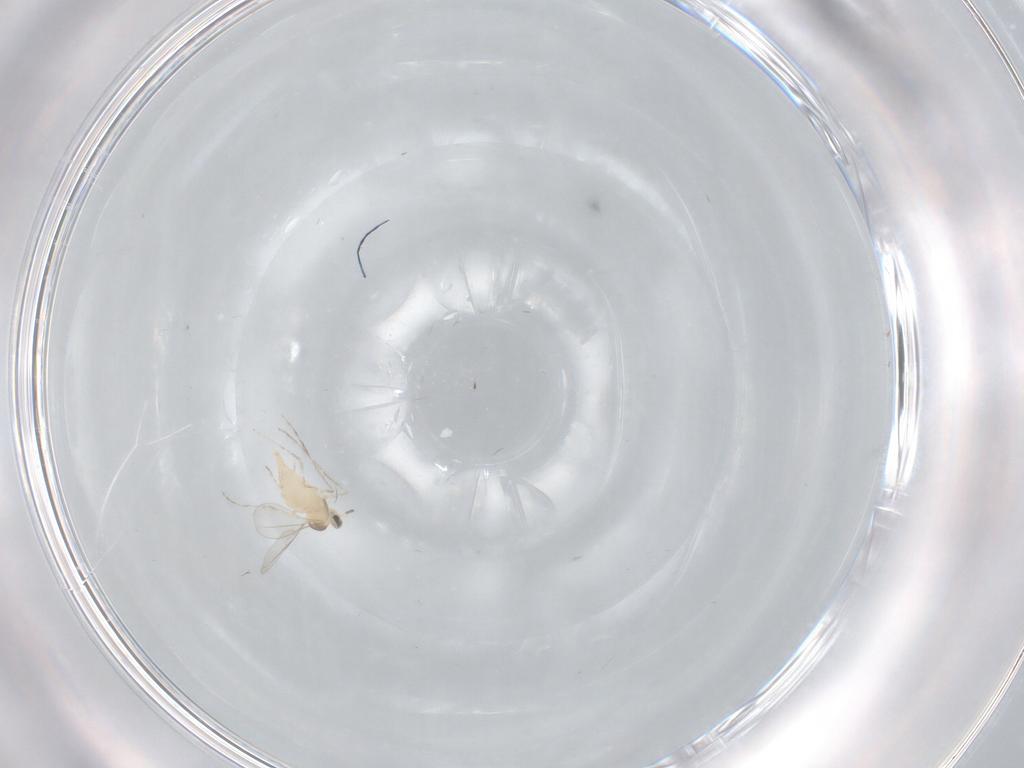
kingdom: Animalia
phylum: Arthropoda
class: Insecta
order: Diptera
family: Cecidomyiidae
